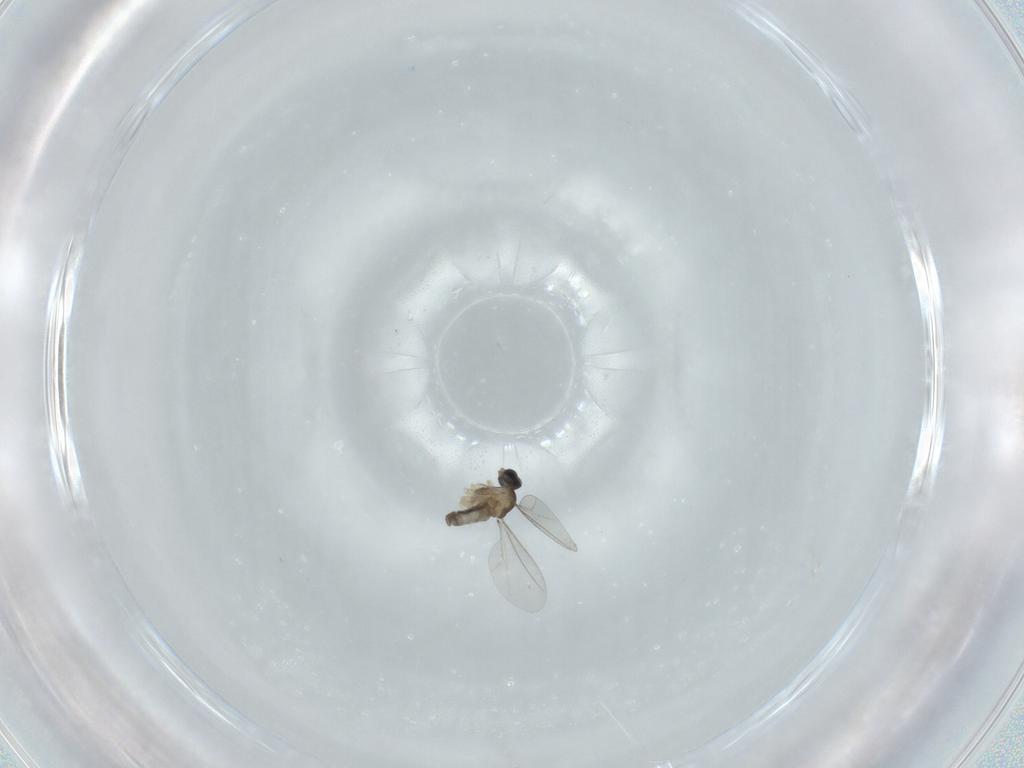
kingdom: Animalia
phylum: Arthropoda
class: Insecta
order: Diptera
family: Cecidomyiidae
